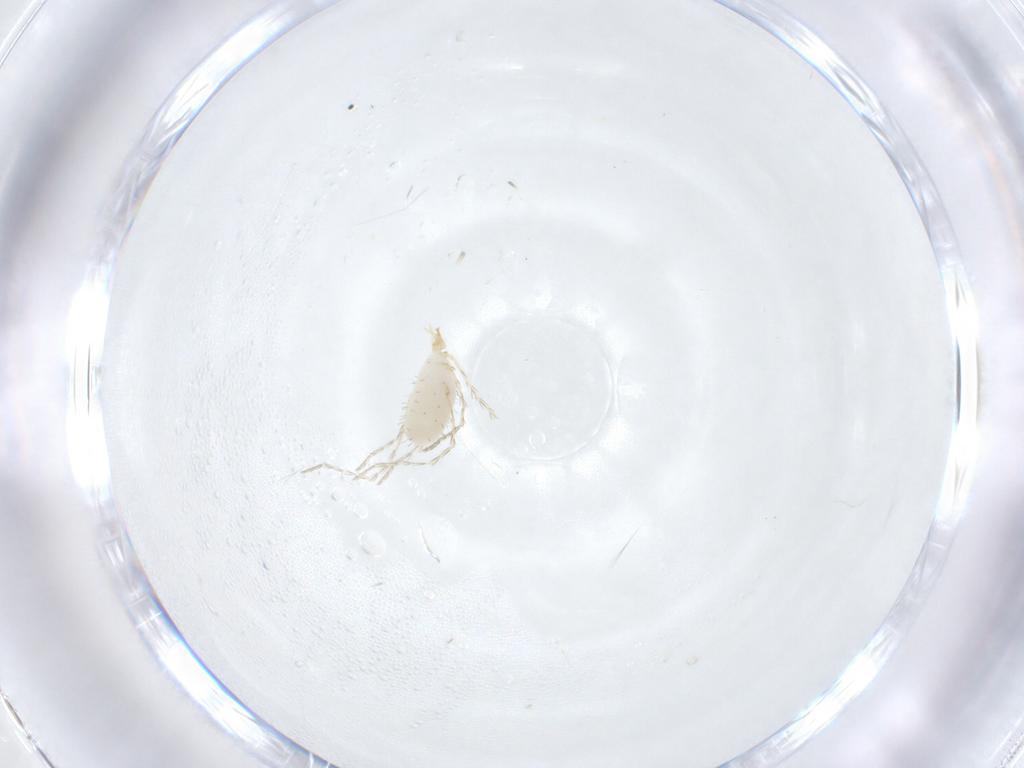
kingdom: Animalia
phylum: Arthropoda
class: Arachnida
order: Trombidiformes
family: Erythraeidae
